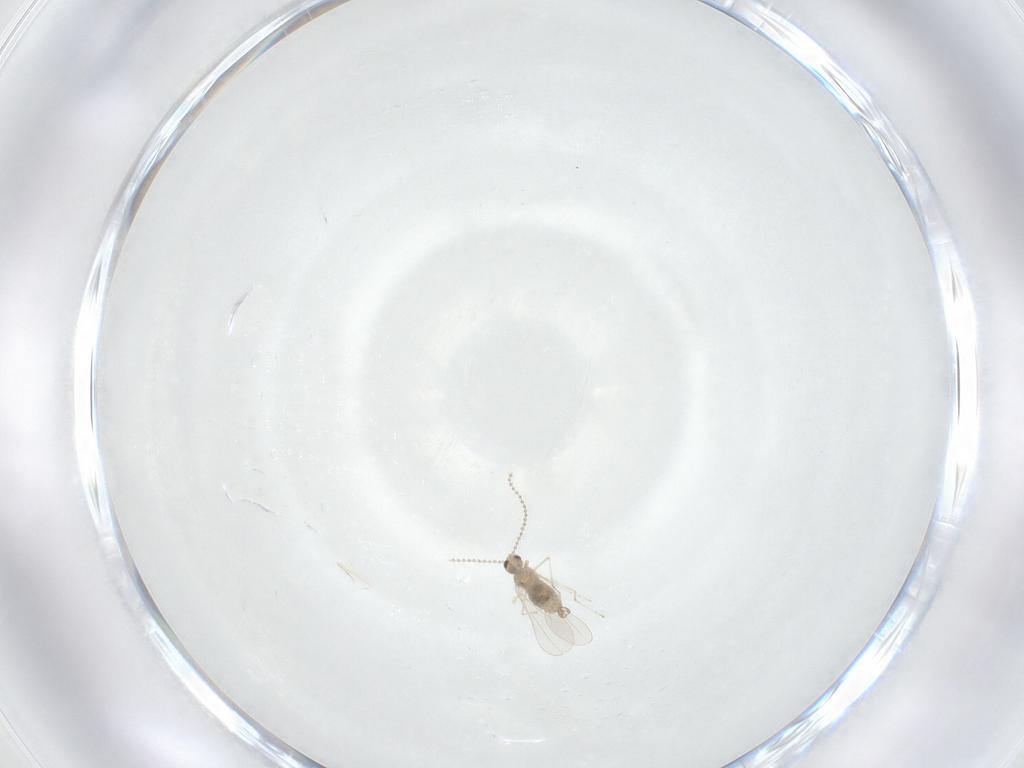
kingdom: Animalia
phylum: Arthropoda
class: Insecta
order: Diptera
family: Cecidomyiidae
